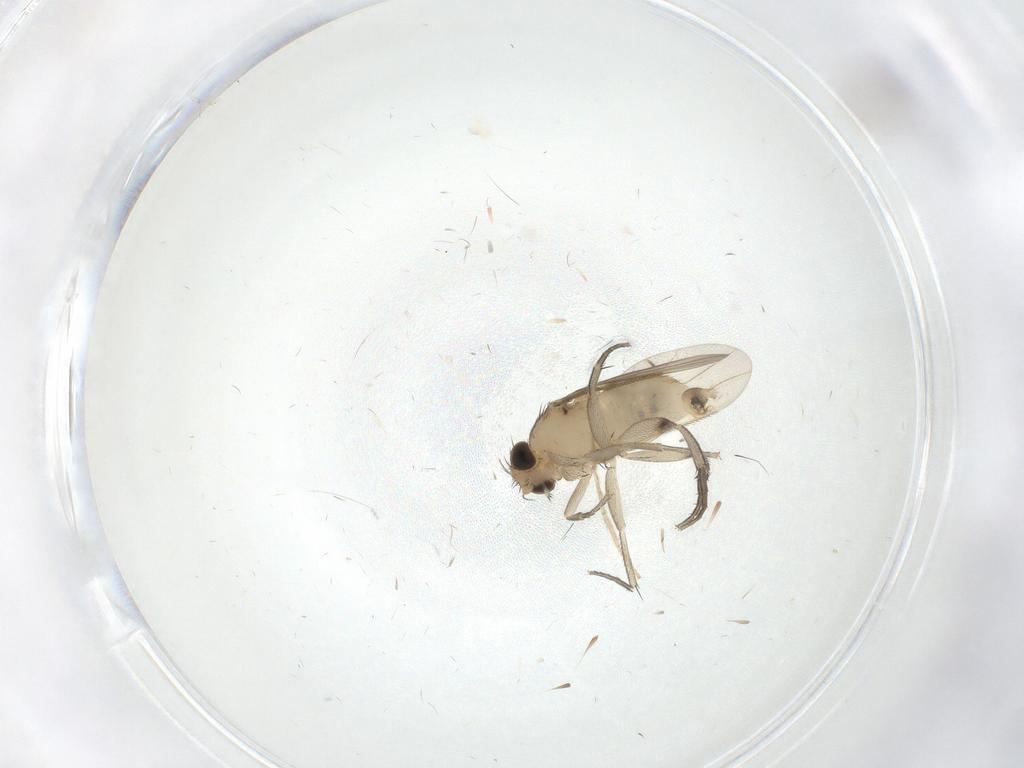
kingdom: Animalia
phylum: Arthropoda
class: Insecta
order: Diptera
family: Phoridae
